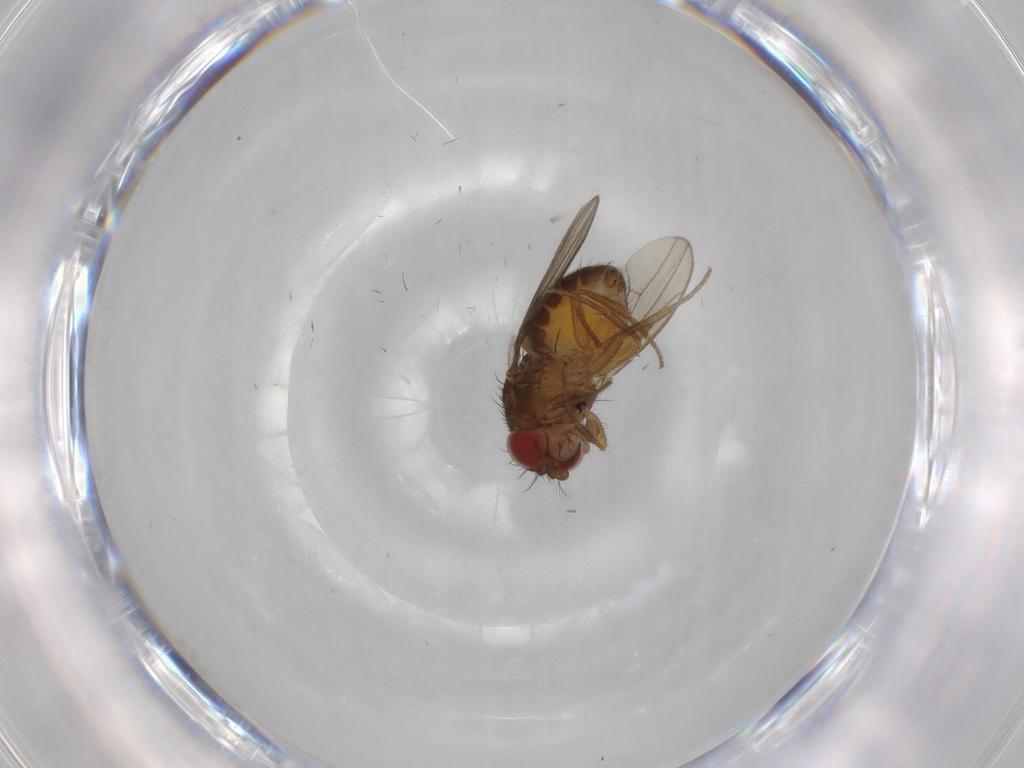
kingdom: Animalia
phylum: Arthropoda
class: Insecta
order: Diptera
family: Drosophilidae
